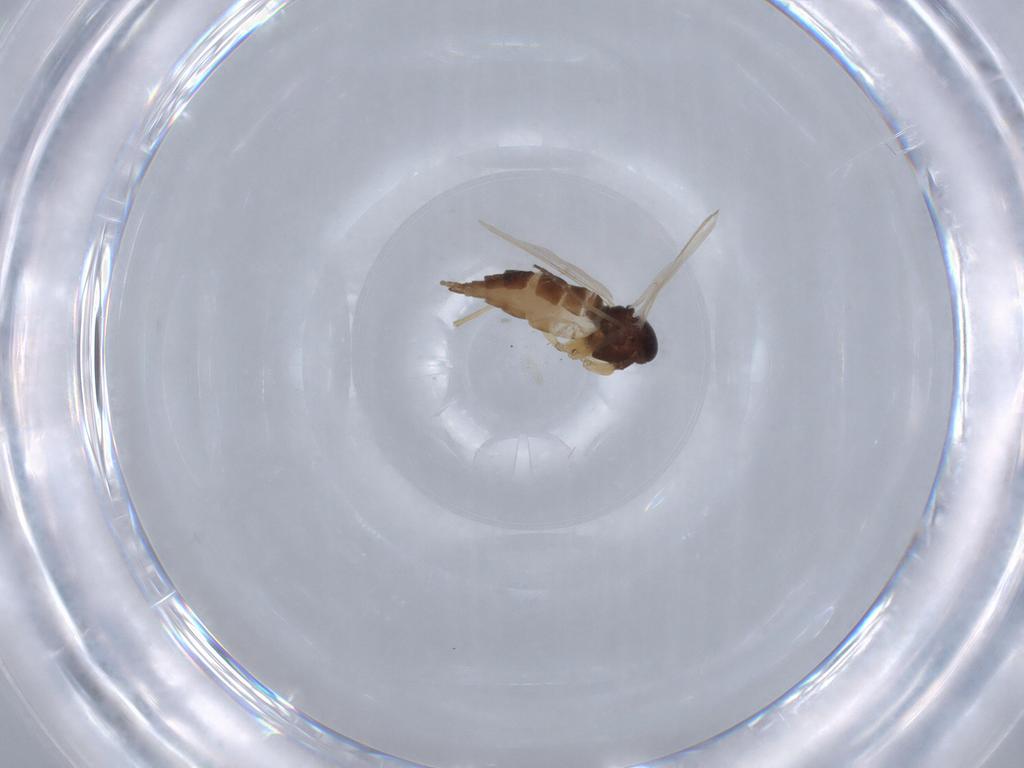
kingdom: Animalia
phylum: Arthropoda
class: Insecta
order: Diptera
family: Sciaridae
